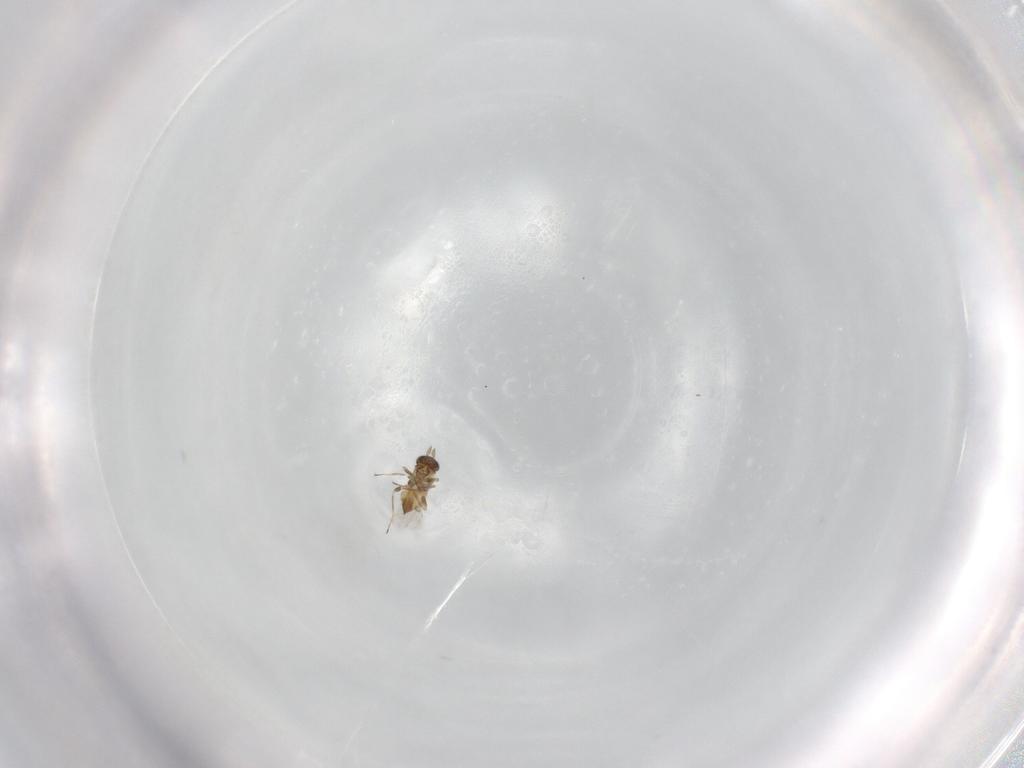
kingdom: Animalia
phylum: Arthropoda
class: Insecta
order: Hymenoptera
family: Trichogrammatidae
